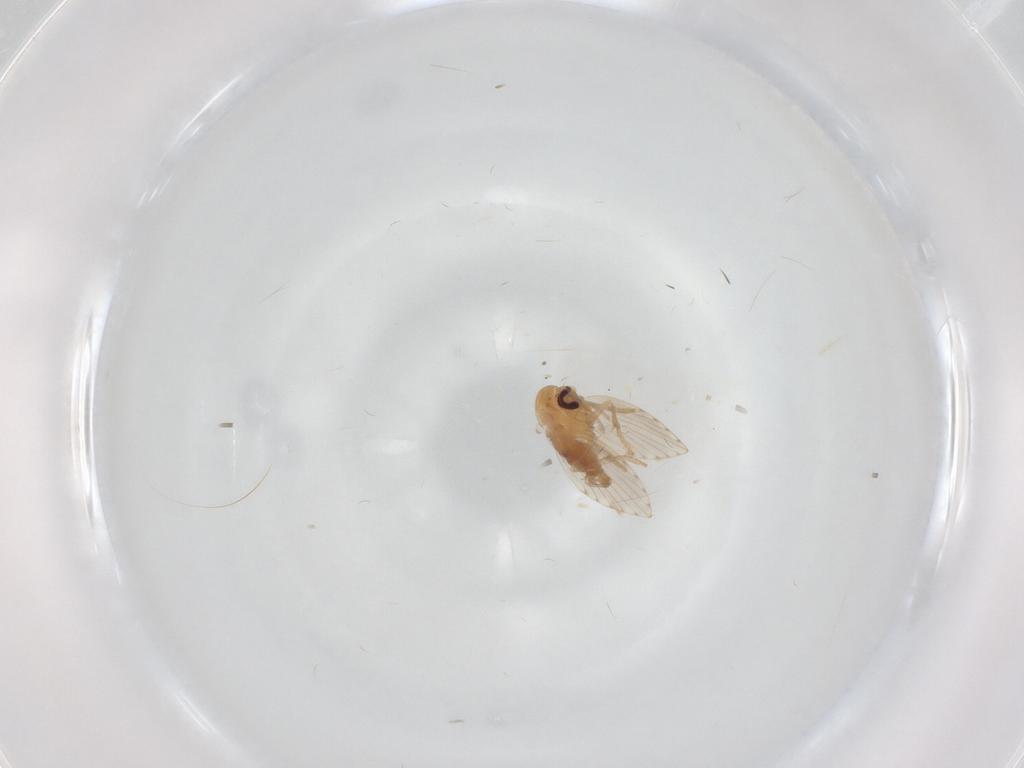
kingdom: Animalia
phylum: Arthropoda
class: Insecta
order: Diptera
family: Psychodidae
